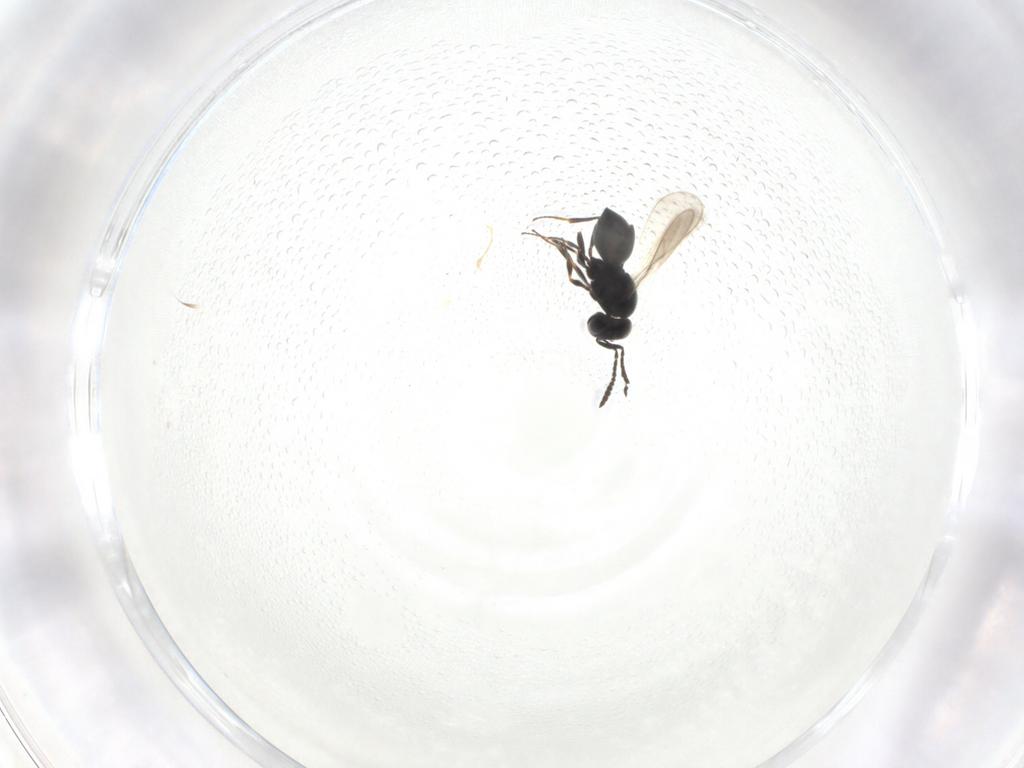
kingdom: Animalia
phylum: Arthropoda
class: Insecta
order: Hymenoptera
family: Scelionidae
